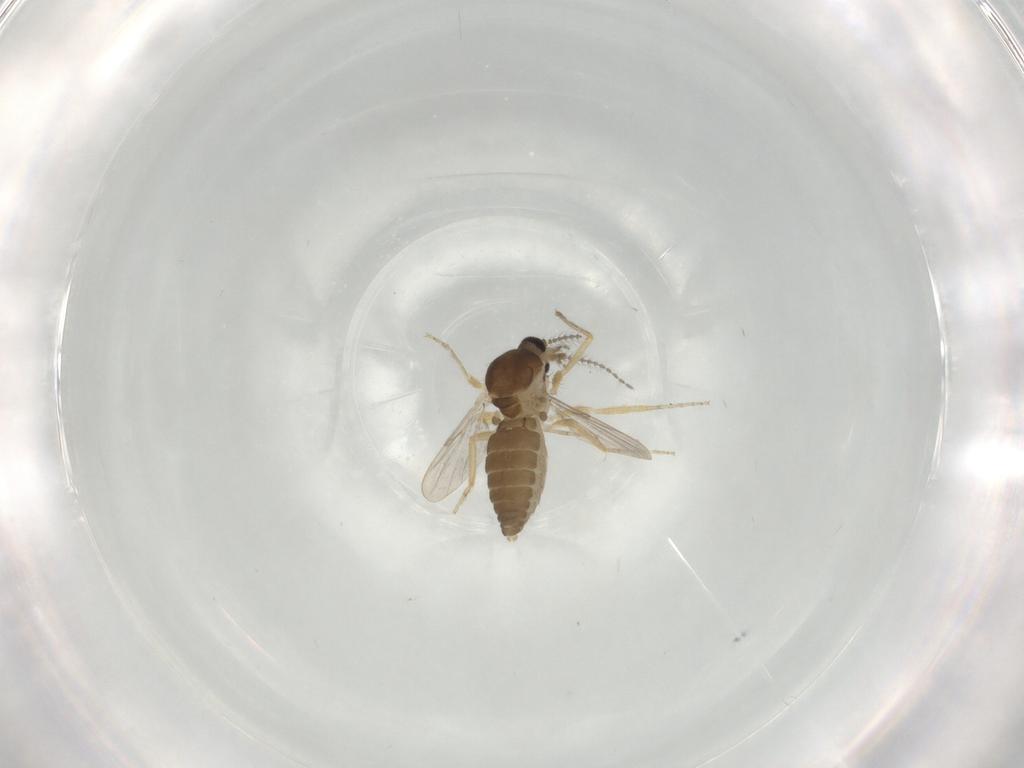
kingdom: Animalia
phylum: Arthropoda
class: Insecta
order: Diptera
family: Ceratopogonidae
